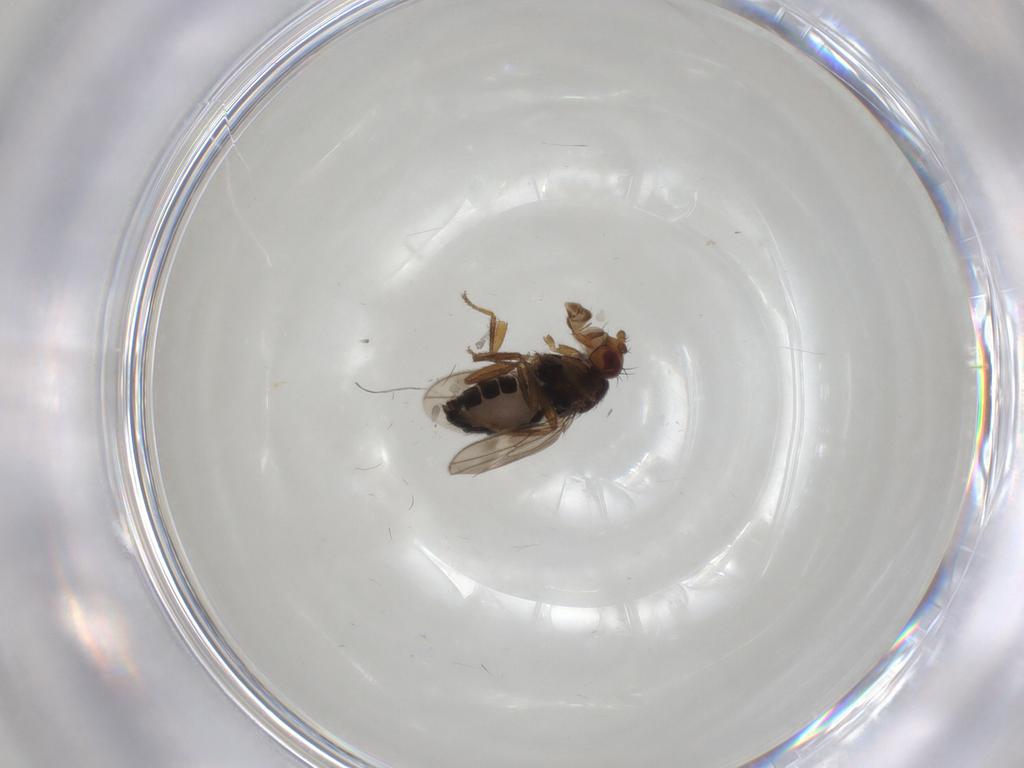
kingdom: Animalia
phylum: Arthropoda
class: Insecta
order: Diptera
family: Sphaeroceridae
